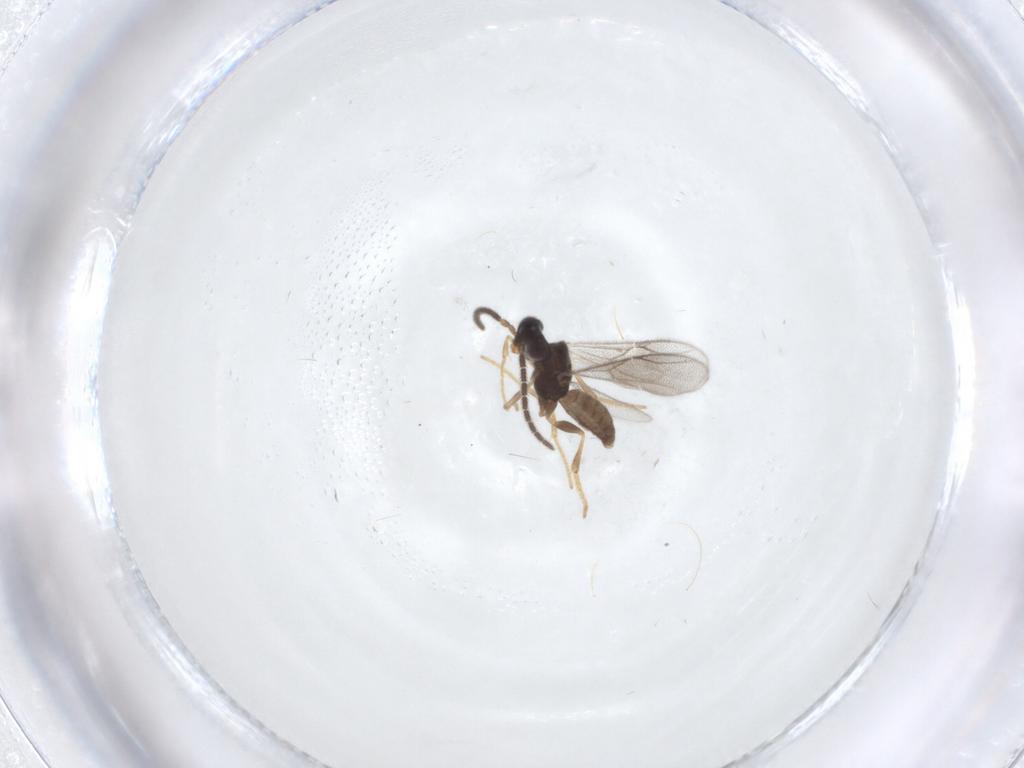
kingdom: Animalia
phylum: Arthropoda
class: Insecta
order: Hymenoptera
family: Dryinidae
